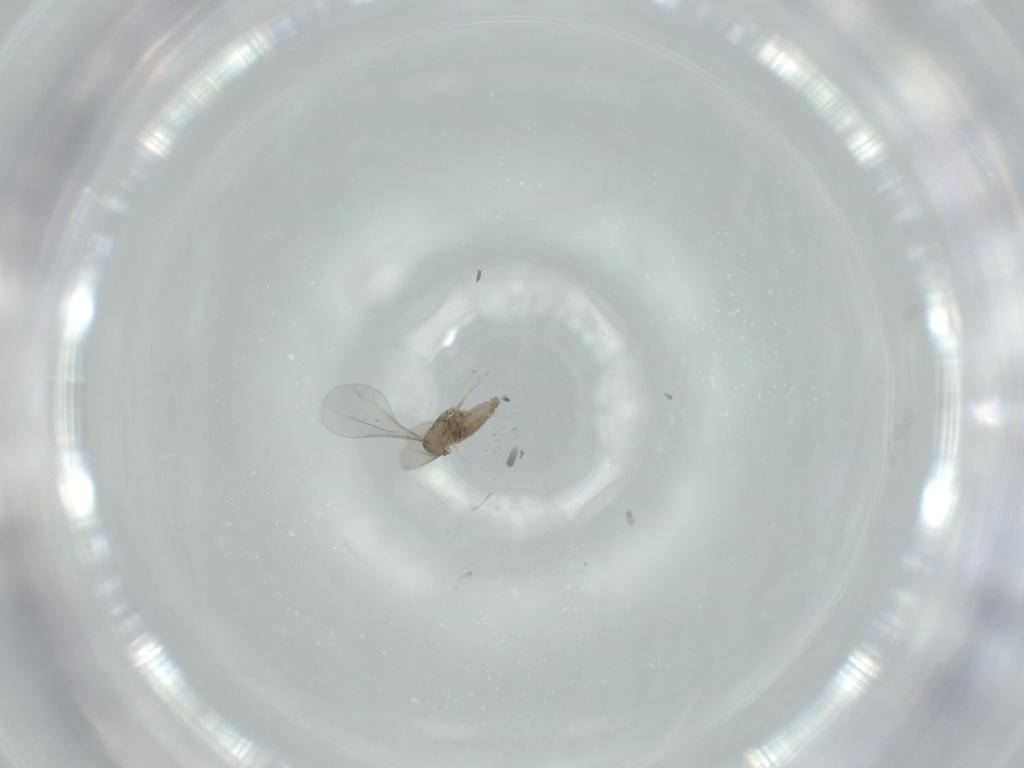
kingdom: Animalia
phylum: Arthropoda
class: Insecta
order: Diptera
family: Cecidomyiidae
